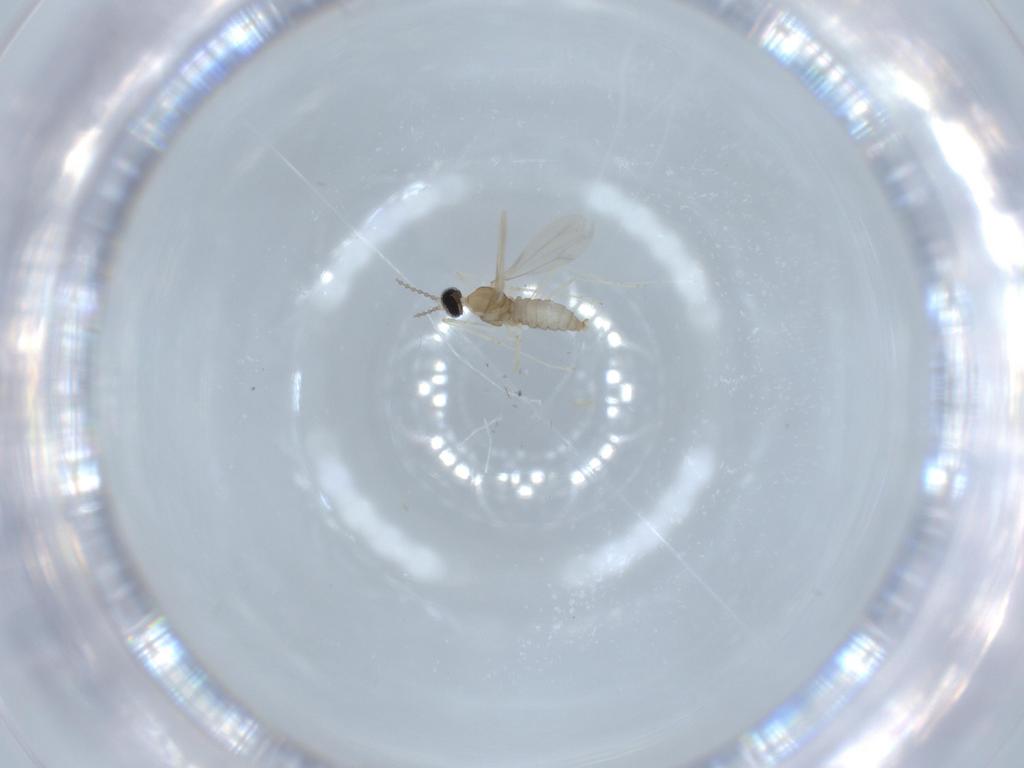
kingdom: Animalia
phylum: Arthropoda
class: Insecta
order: Diptera
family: Cecidomyiidae
